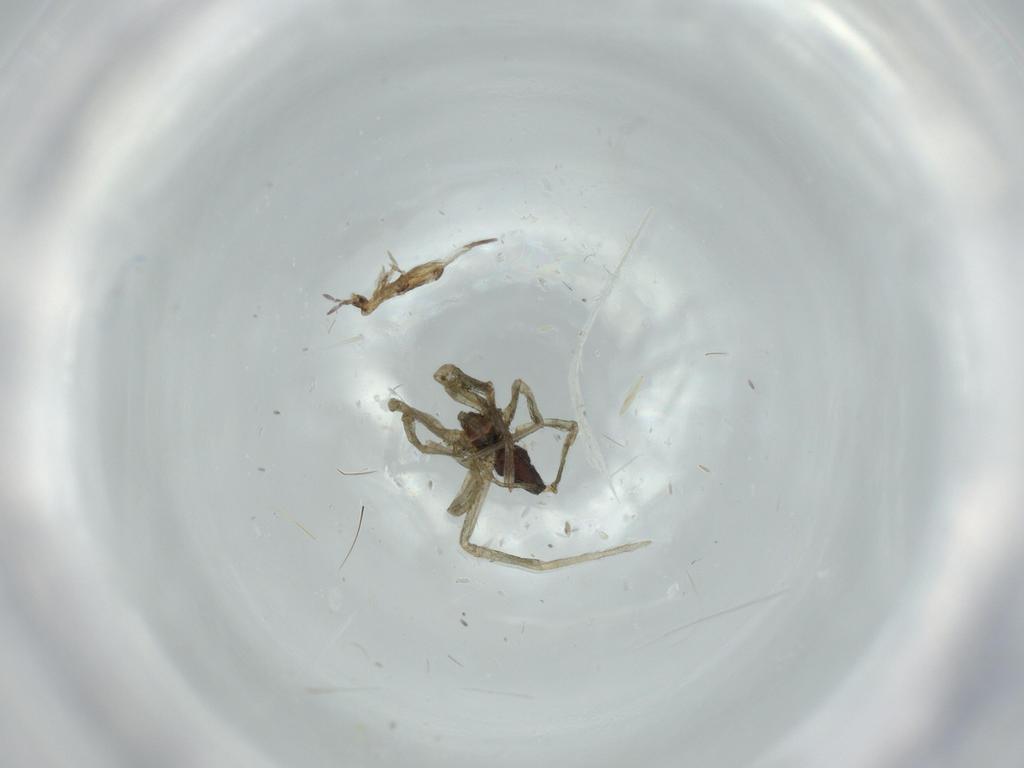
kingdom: Animalia
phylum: Arthropoda
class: Arachnida
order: Araneae
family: Linyphiidae
